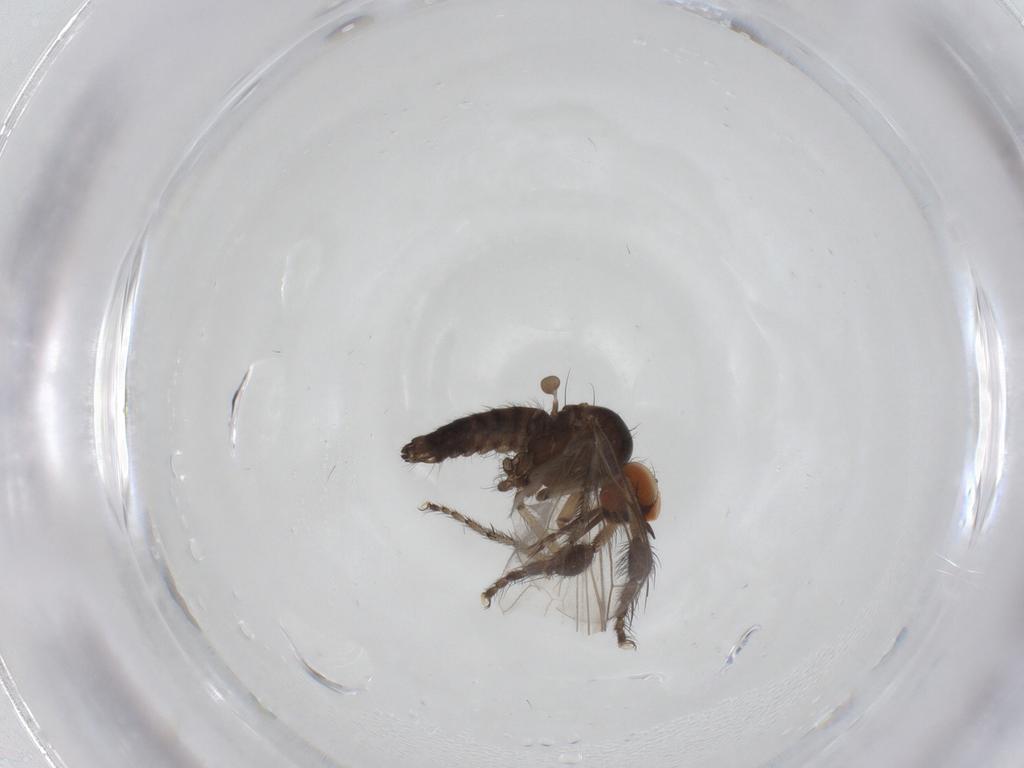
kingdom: Animalia
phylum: Arthropoda
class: Insecta
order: Diptera
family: Empididae
